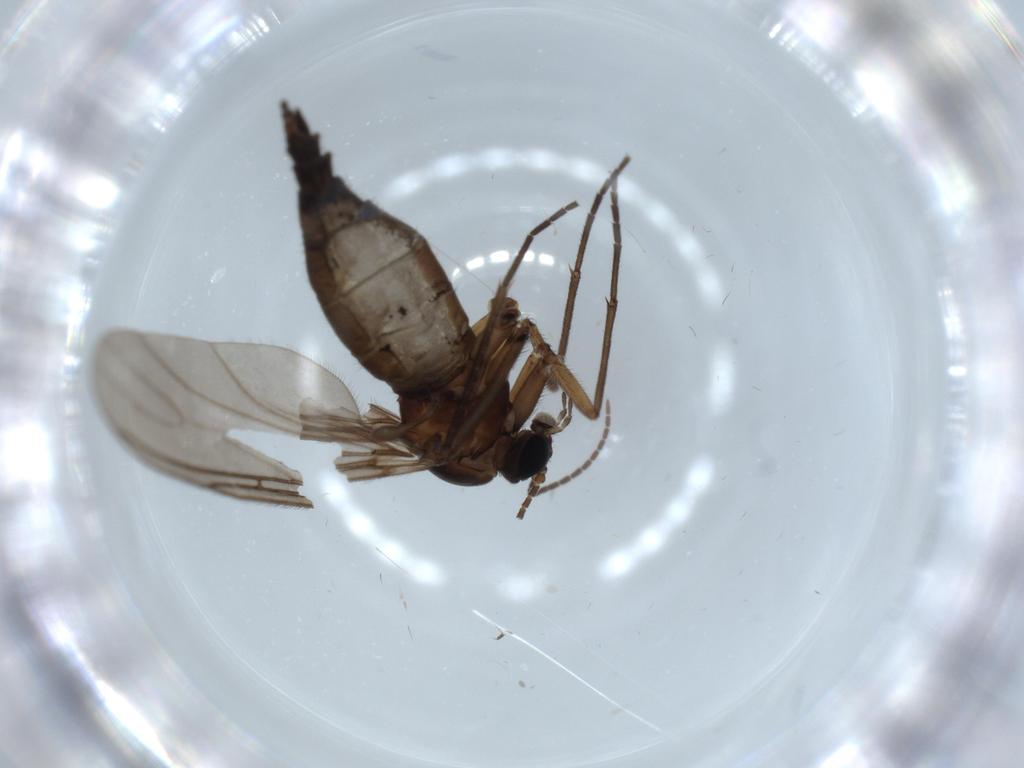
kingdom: Animalia
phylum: Arthropoda
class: Insecta
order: Diptera
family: Sciaridae
